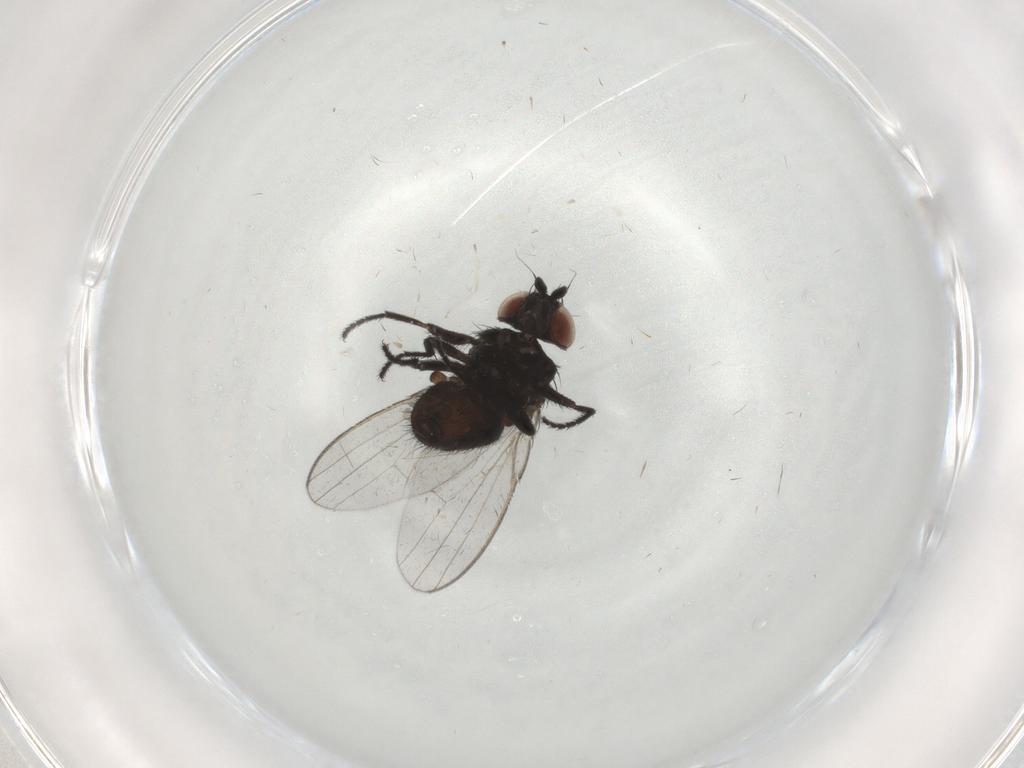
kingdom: Animalia
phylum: Arthropoda
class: Insecta
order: Diptera
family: Milichiidae
